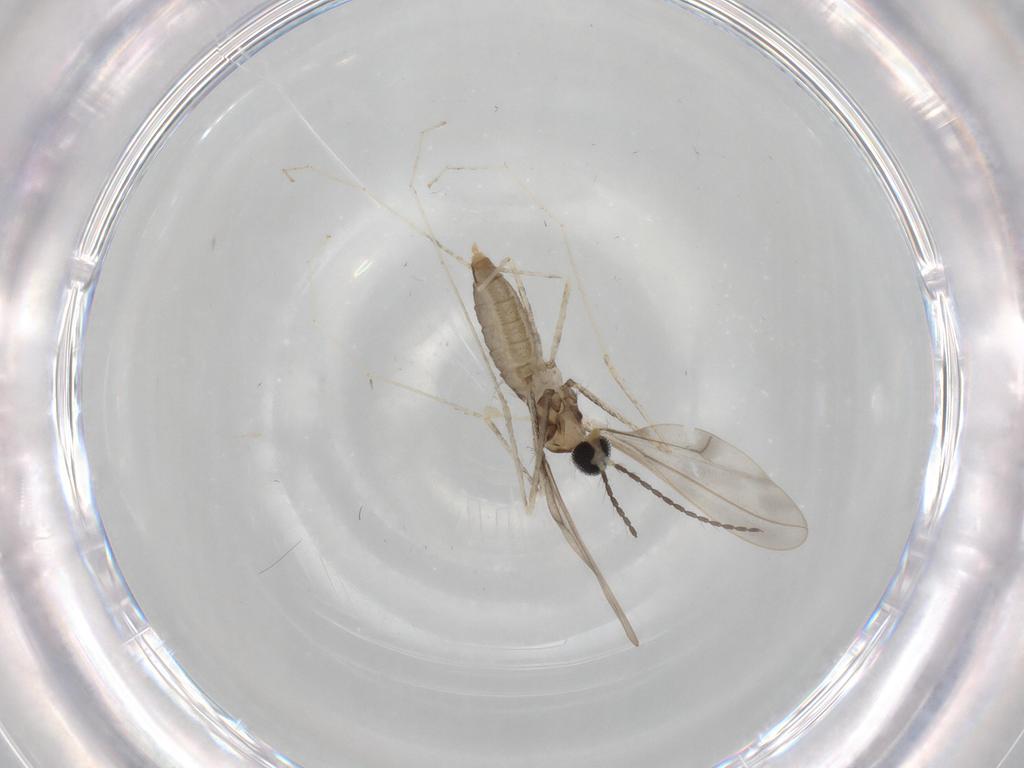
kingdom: Animalia
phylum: Arthropoda
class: Insecta
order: Diptera
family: Cecidomyiidae
